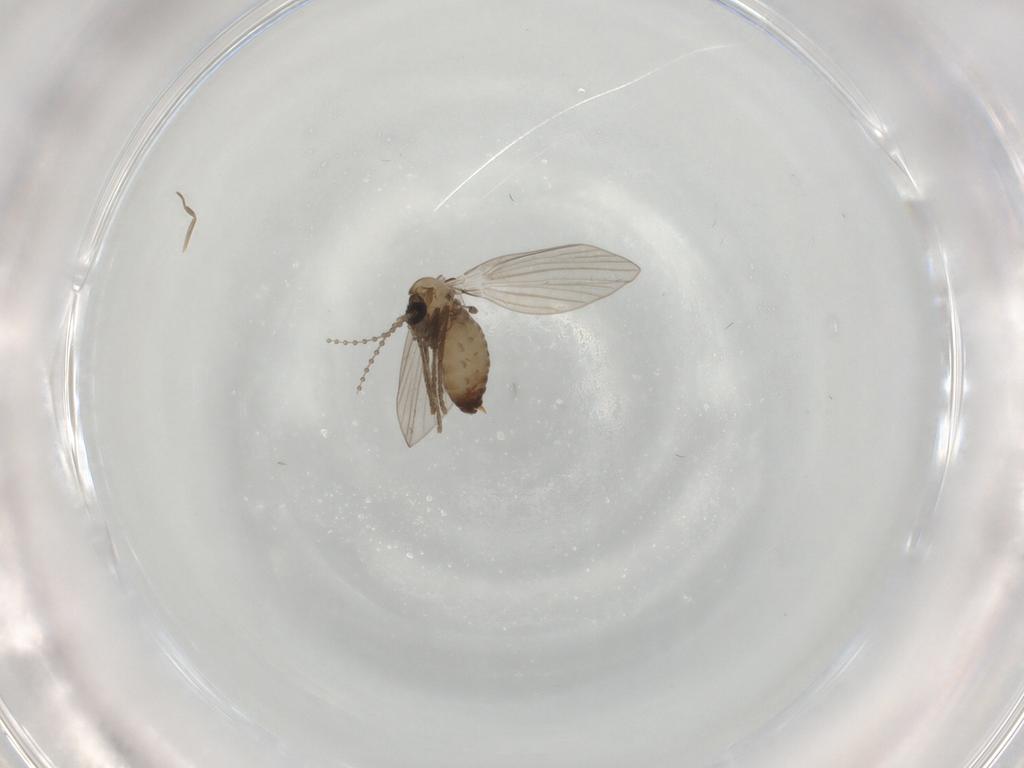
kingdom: Animalia
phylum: Arthropoda
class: Insecta
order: Diptera
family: Psychodidae
